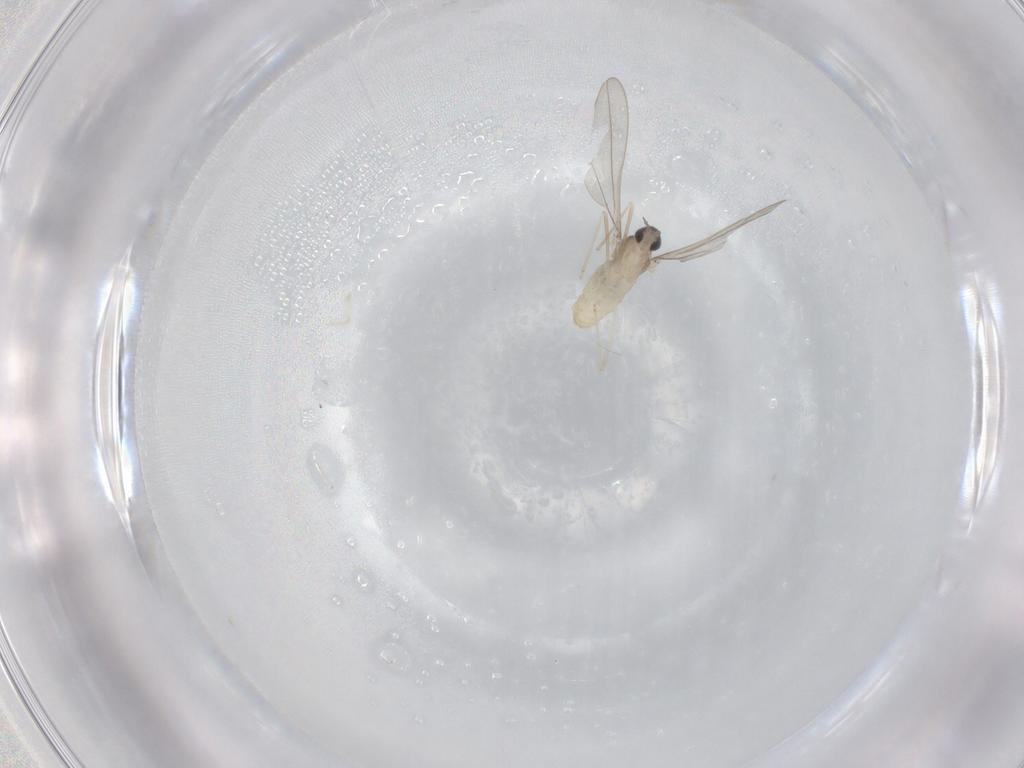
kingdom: Animalia
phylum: Arthropoda
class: Insecta
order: Diptera
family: Cecidomyiidae
